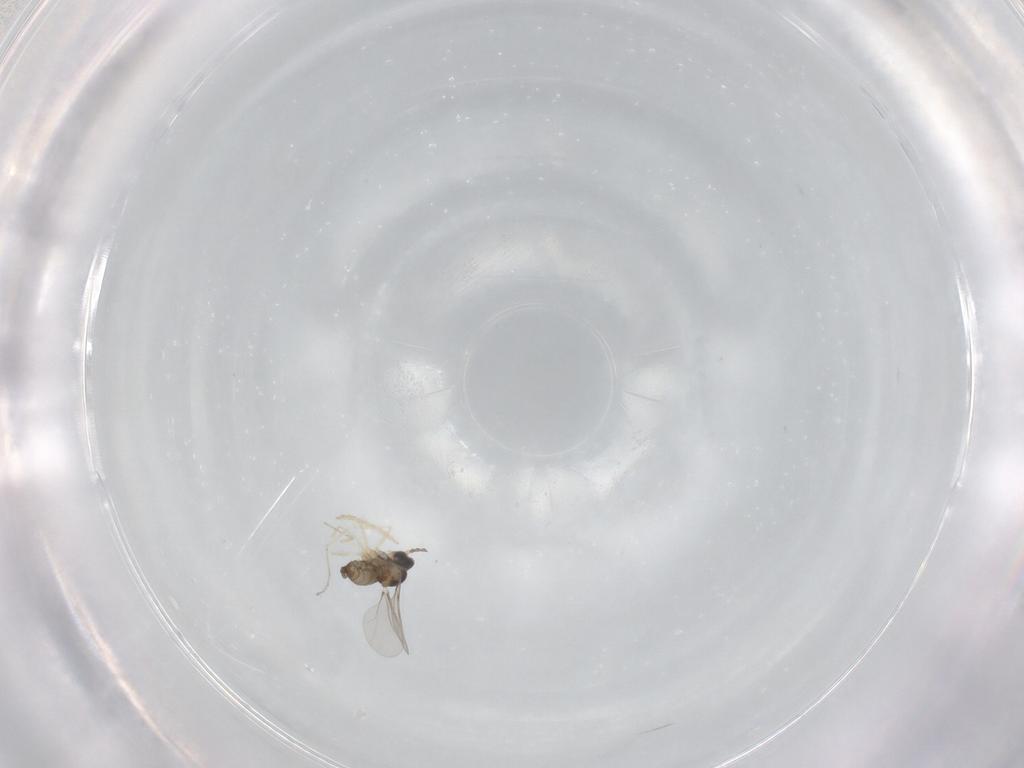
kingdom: Animalia
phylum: Arthropoda
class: Insecta
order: Diptera
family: Cecidomyiidae
